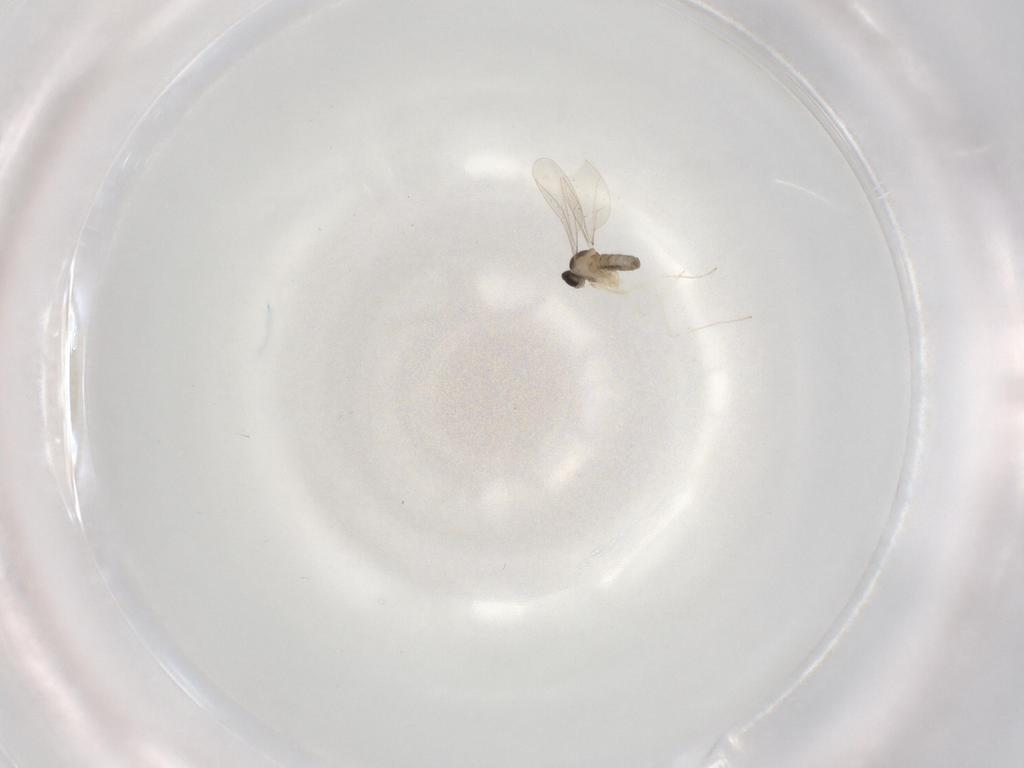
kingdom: Animalia
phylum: Arthropoda
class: Insecta
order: Diptera
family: Cecidomyiidae
